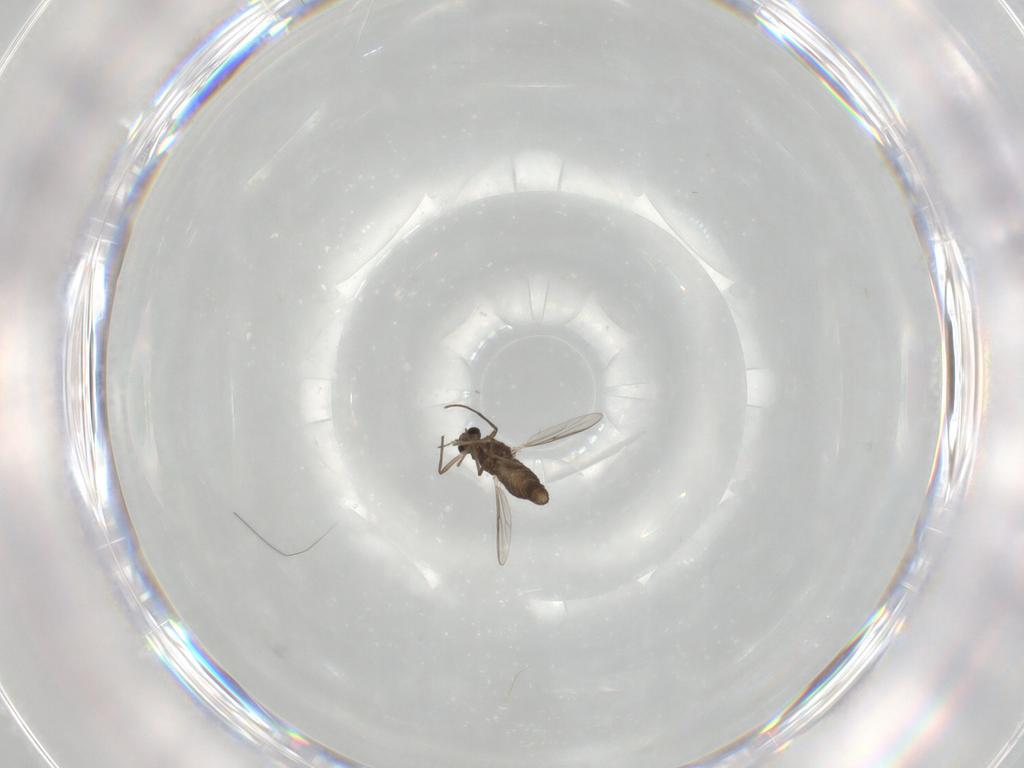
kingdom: Animalia
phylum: Arthropoda
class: Insecta
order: Diptera
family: Chironomidae
